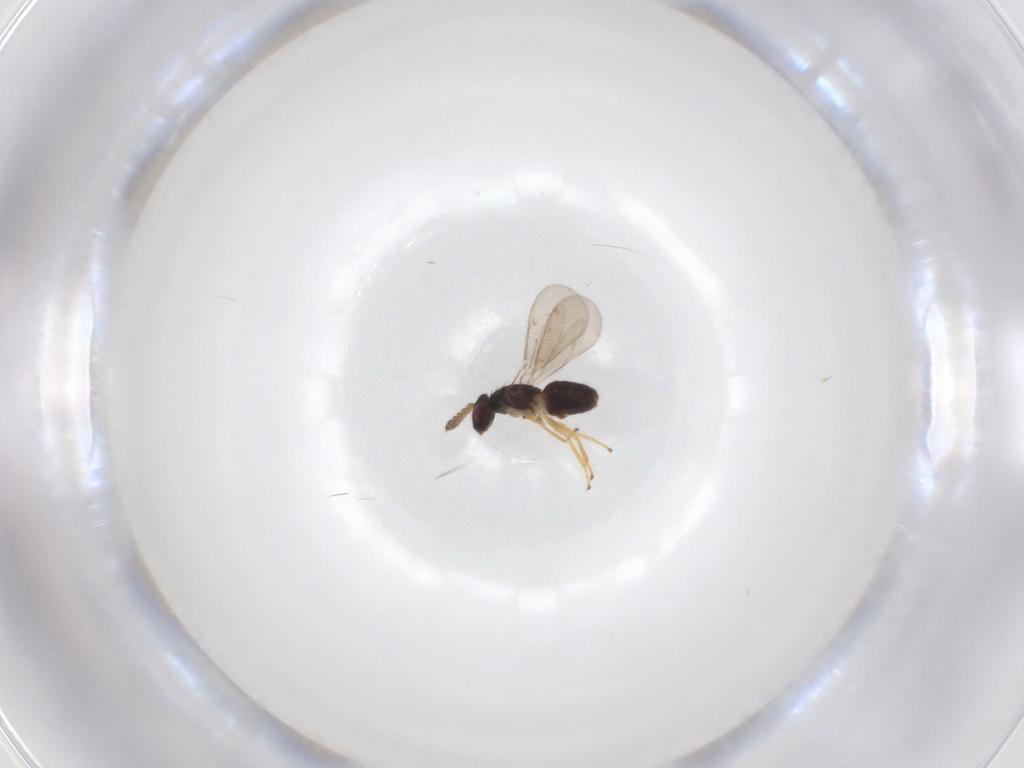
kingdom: Animalia
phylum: Arthropoda
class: Insecta
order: Hymenoptera
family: Eulophidae
